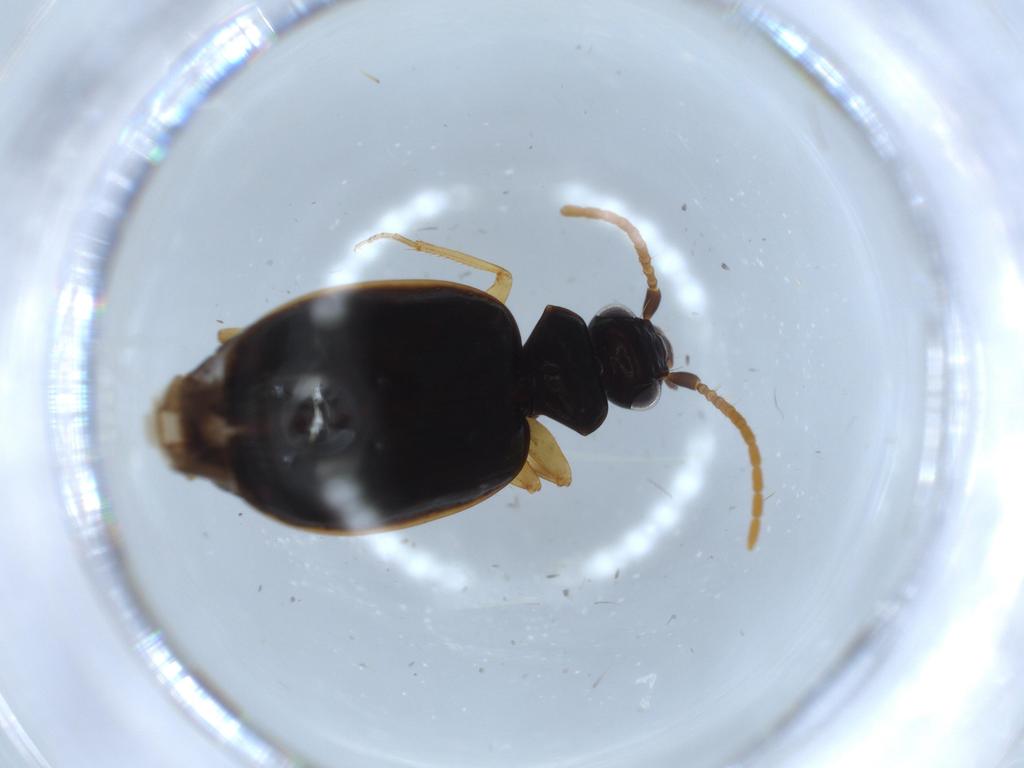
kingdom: Animalia
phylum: Arthropoda
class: Insecta
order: Coleoptera
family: Carabidae
